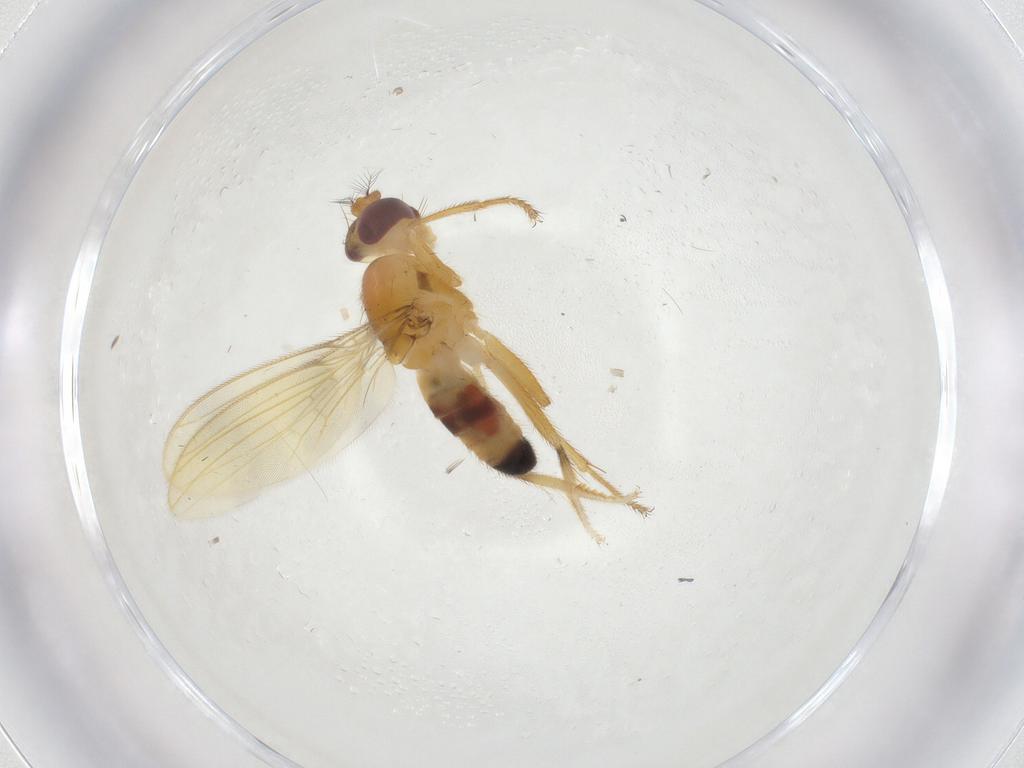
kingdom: Animalia
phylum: Arthropoda
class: Insecta
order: Diptera
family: Periscelididae
